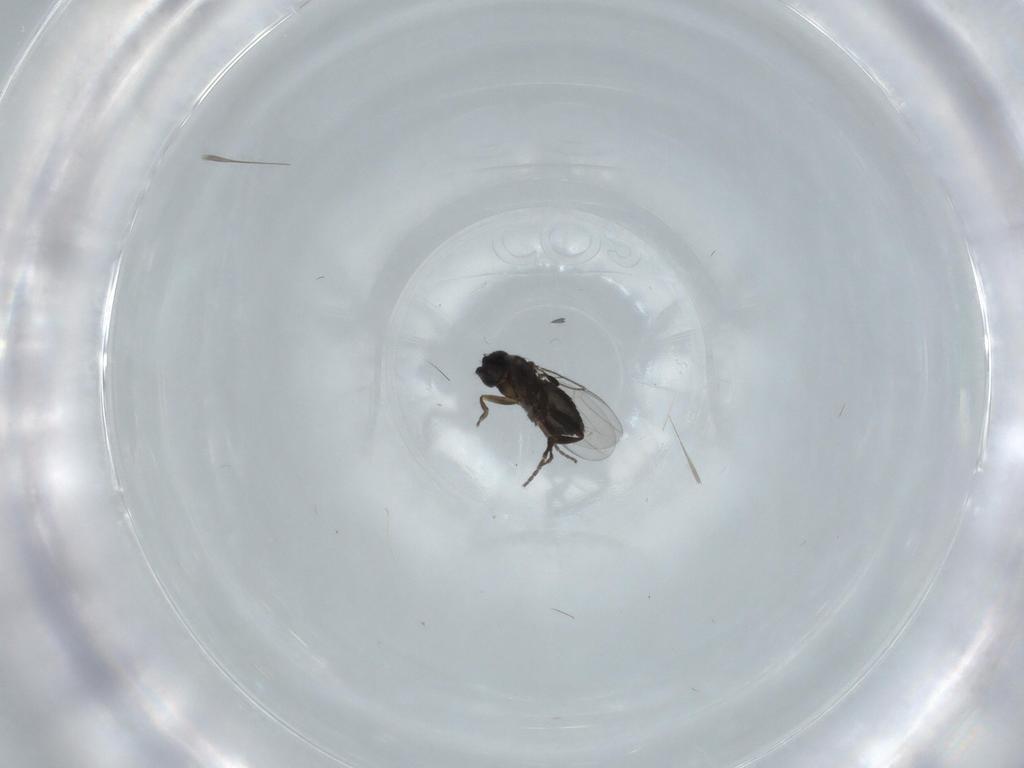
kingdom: Animalia
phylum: Arthropoda
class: Insecta
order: Diptera
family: Phoridae
